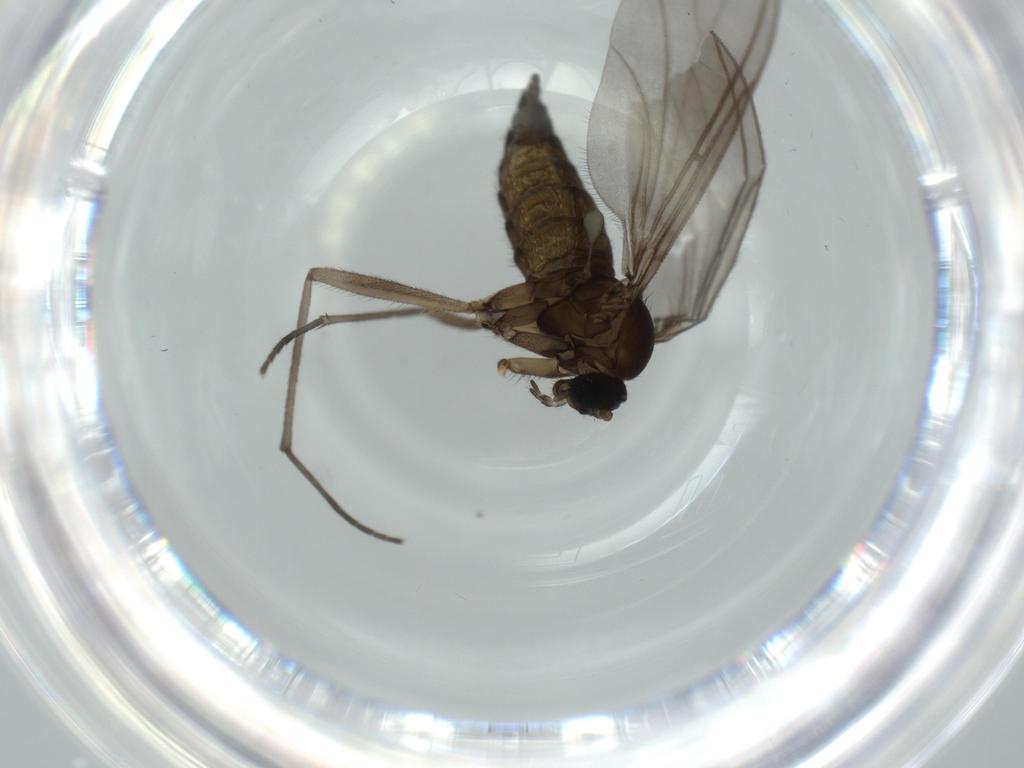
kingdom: Animalia
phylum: Arthropoda
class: Insecta
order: Diptera
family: Sciaridae
